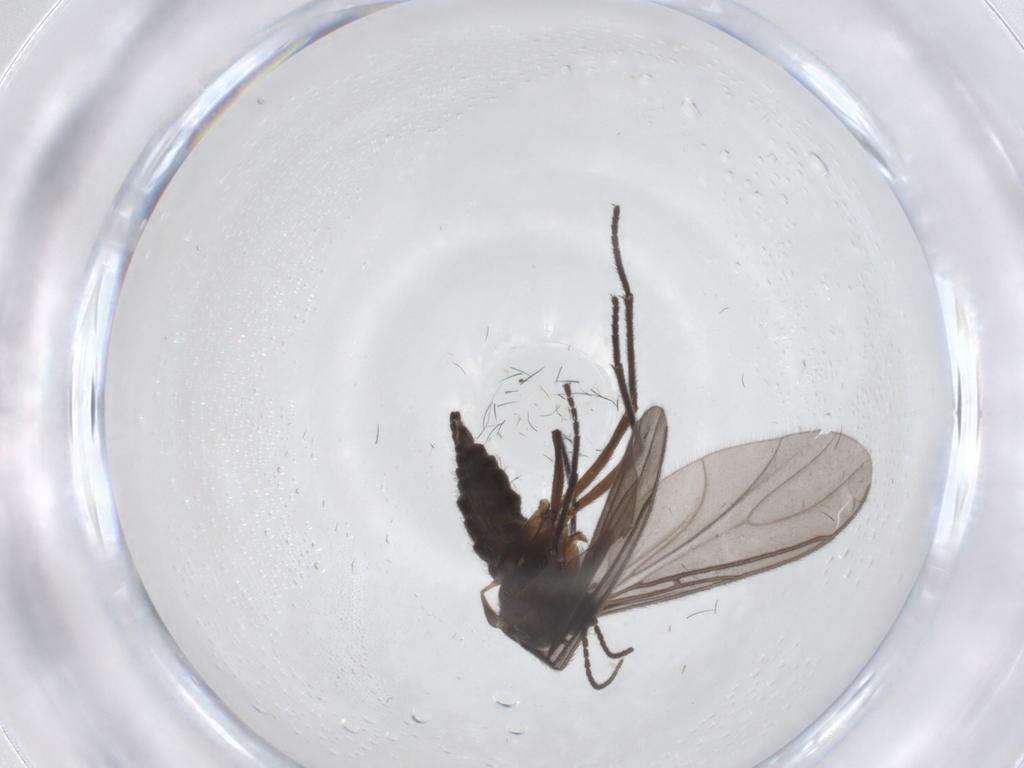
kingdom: Animalia
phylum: Arthropoda
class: Insecta
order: Diptera
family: Sciaridae
